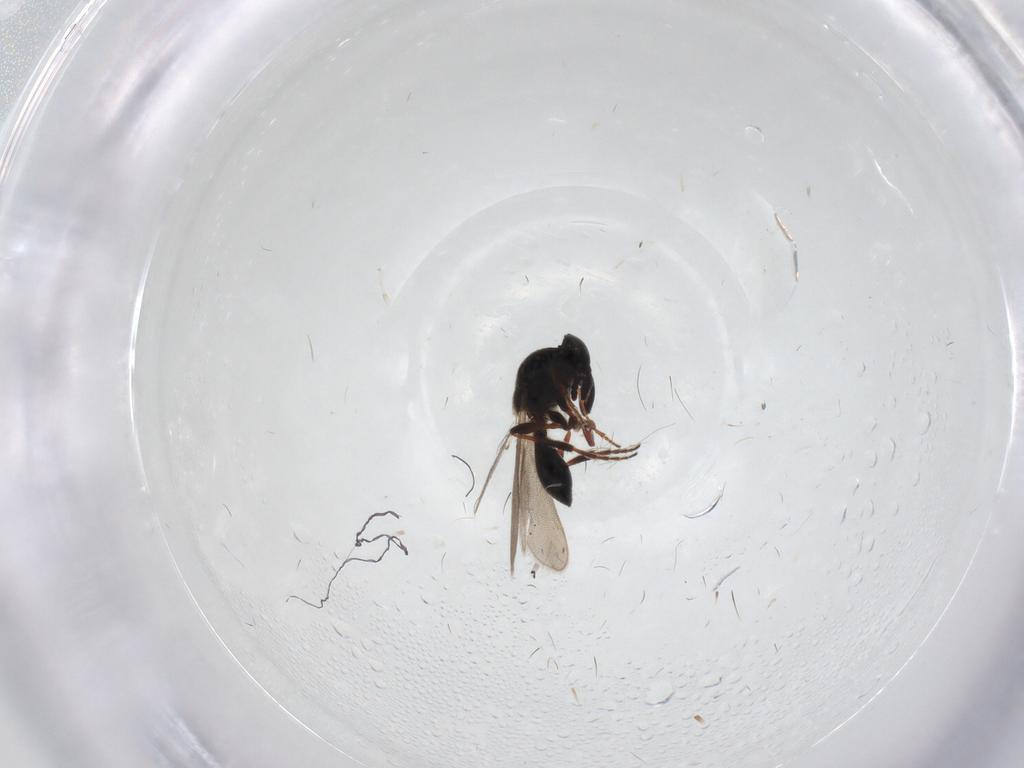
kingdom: Animalia
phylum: Arthropoda
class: Insecta
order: Hymenoptera
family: Platygastridae
